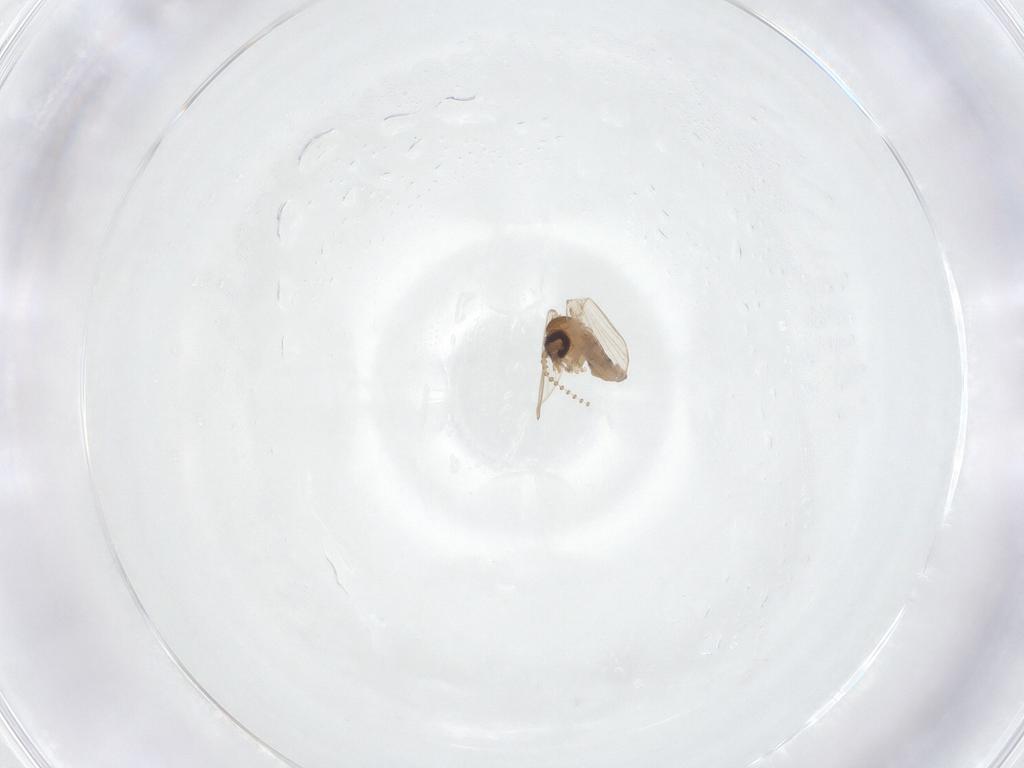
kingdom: Animalia
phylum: Arthropoda
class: Insecta
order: Diptera
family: Psychodidae
